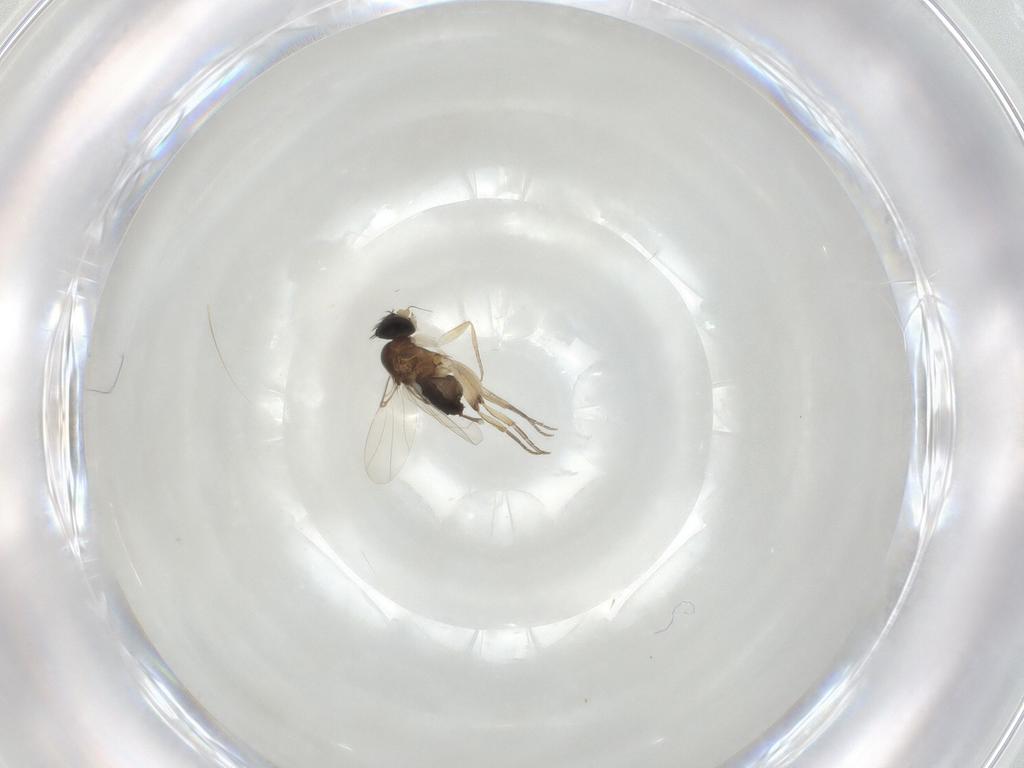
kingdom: Animalia
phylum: Arthropoda
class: Insecta
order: Diptera
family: Phoridae
